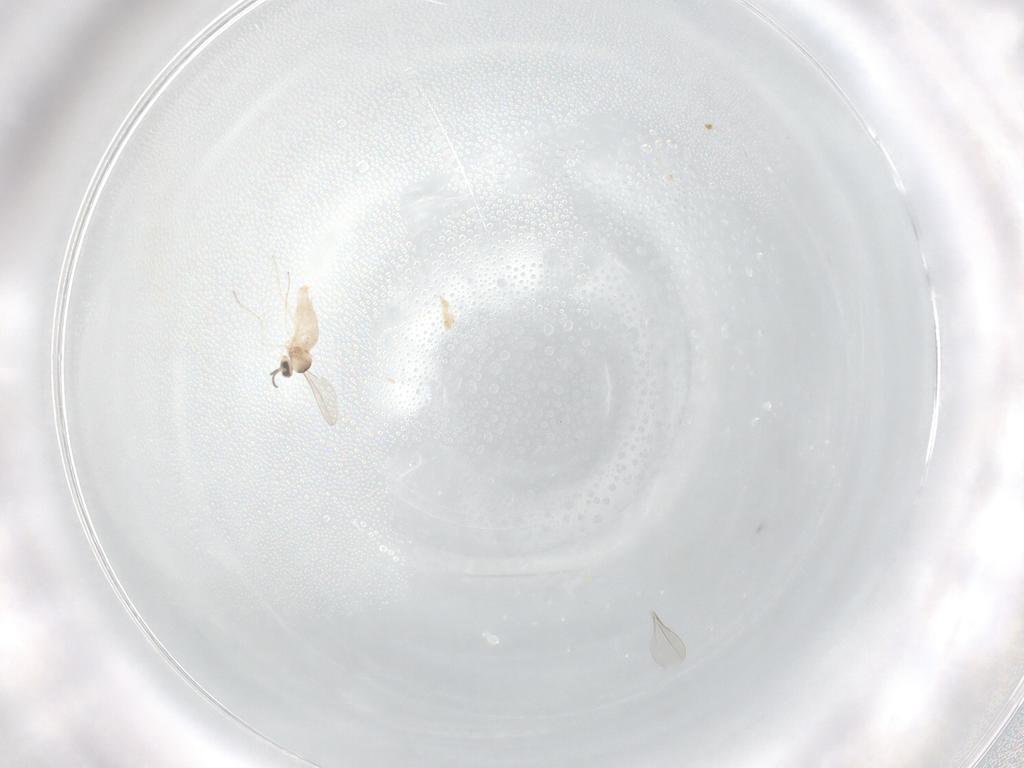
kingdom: Animalia
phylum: Arthropoda
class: Insecta
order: Diptera
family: Cecidomyiidae
